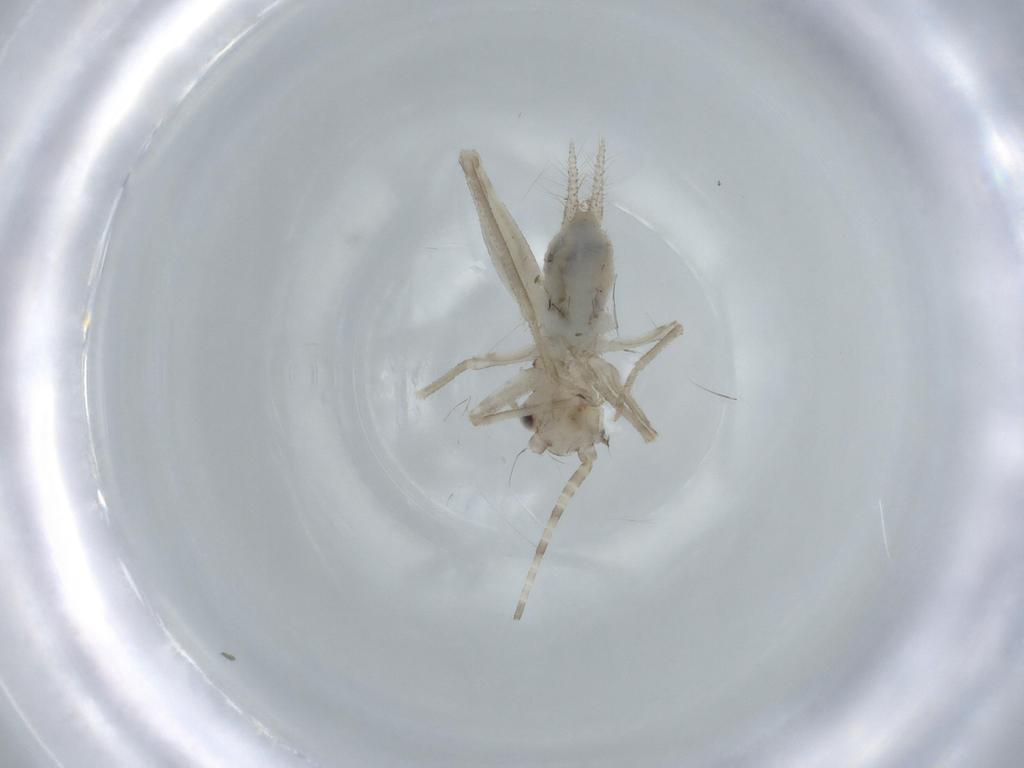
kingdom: Animalia
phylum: Arthropoda
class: Insecta
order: Orthoptera
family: Trigonidiidae
